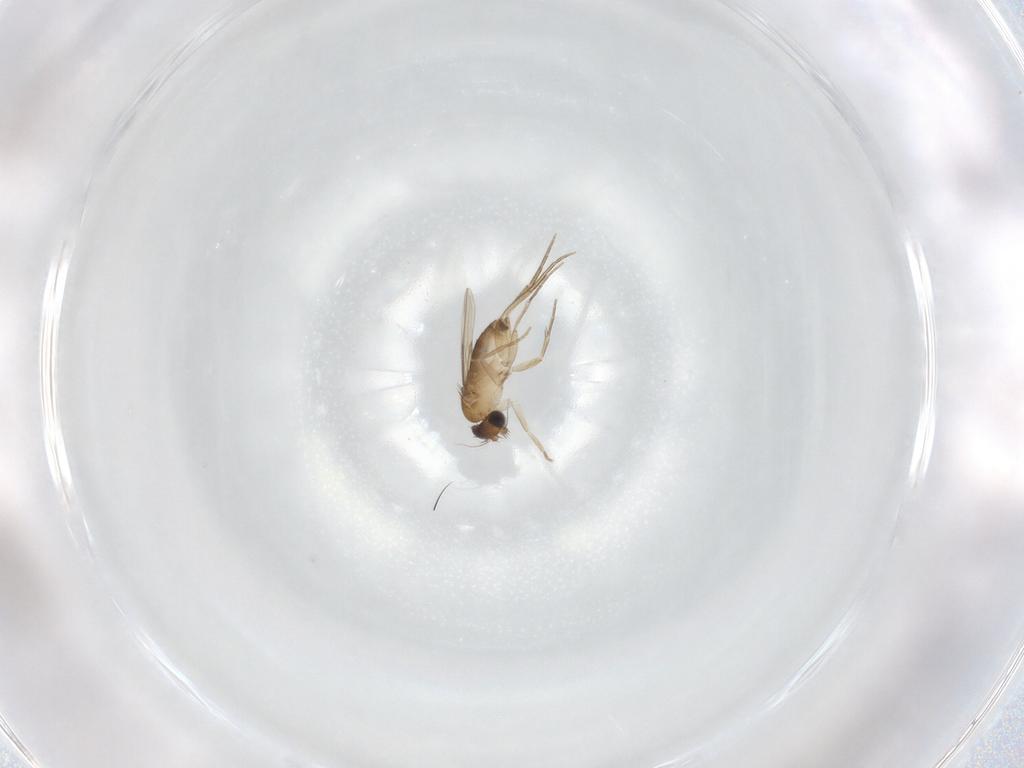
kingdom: Animalia
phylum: Arthropoda
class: Insecta
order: Diptera
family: Phoridae
